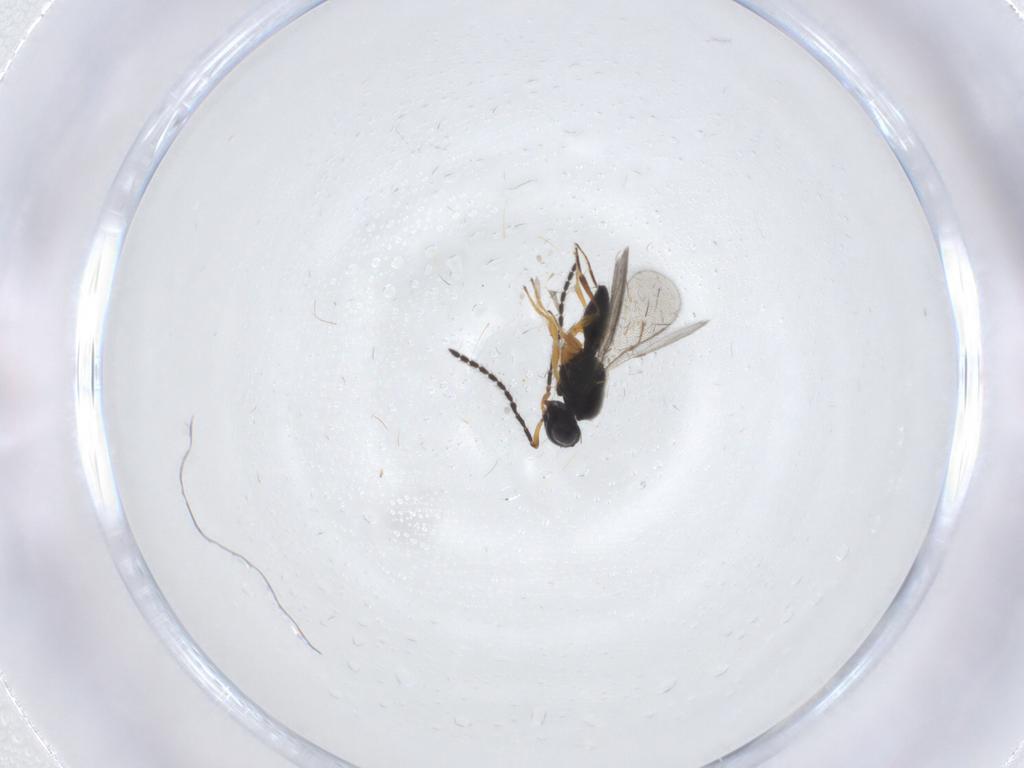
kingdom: Animalia
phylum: Arthropoda
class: Insecta
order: Hymenoptera
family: Scelionidae
